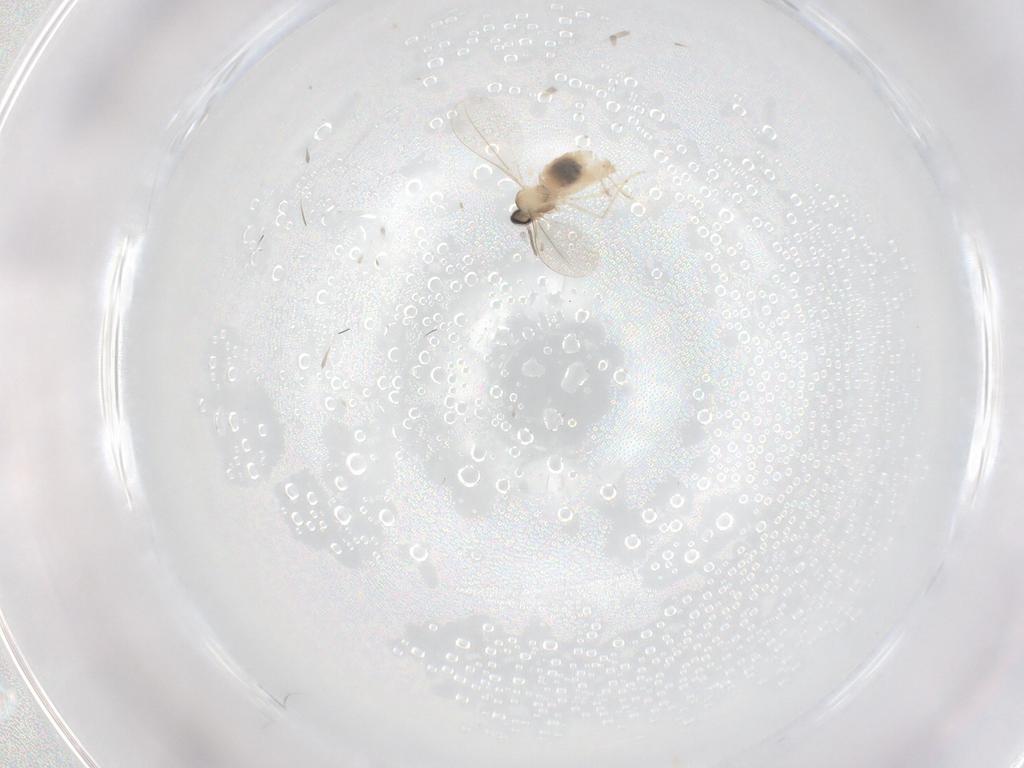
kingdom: Animalia
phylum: Arthropoda
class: Insecta
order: Diptera
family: Cecidomyiidae
